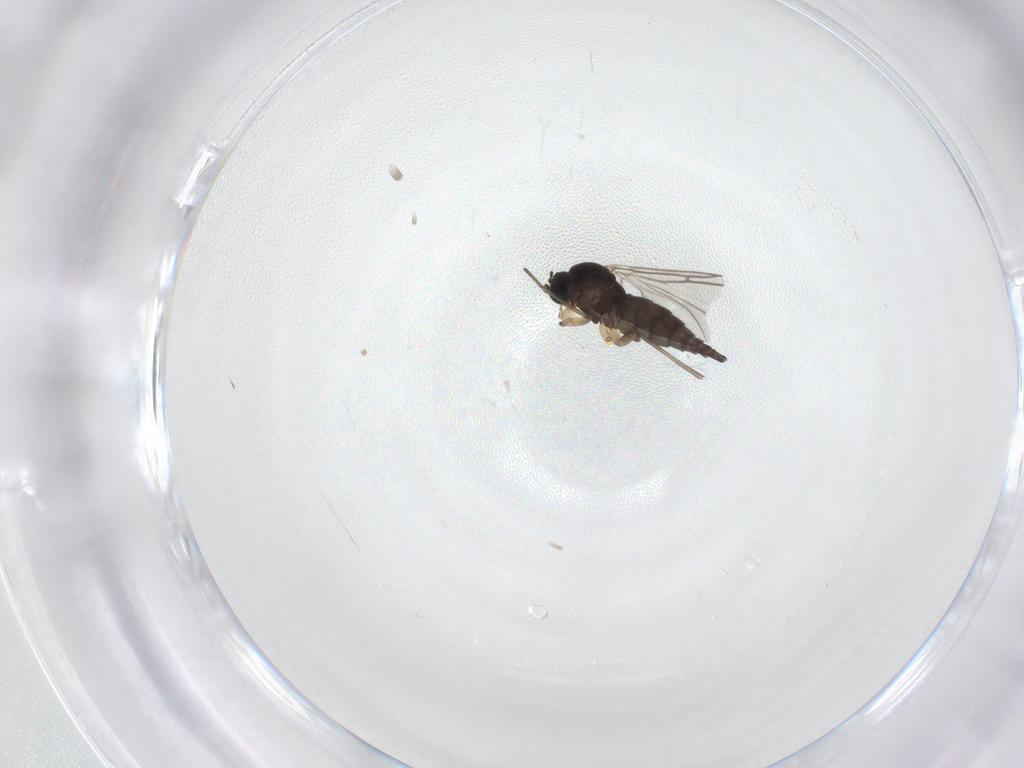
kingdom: Animalia
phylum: Arthropoda
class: Insecta
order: Diptera
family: Sciaridae
